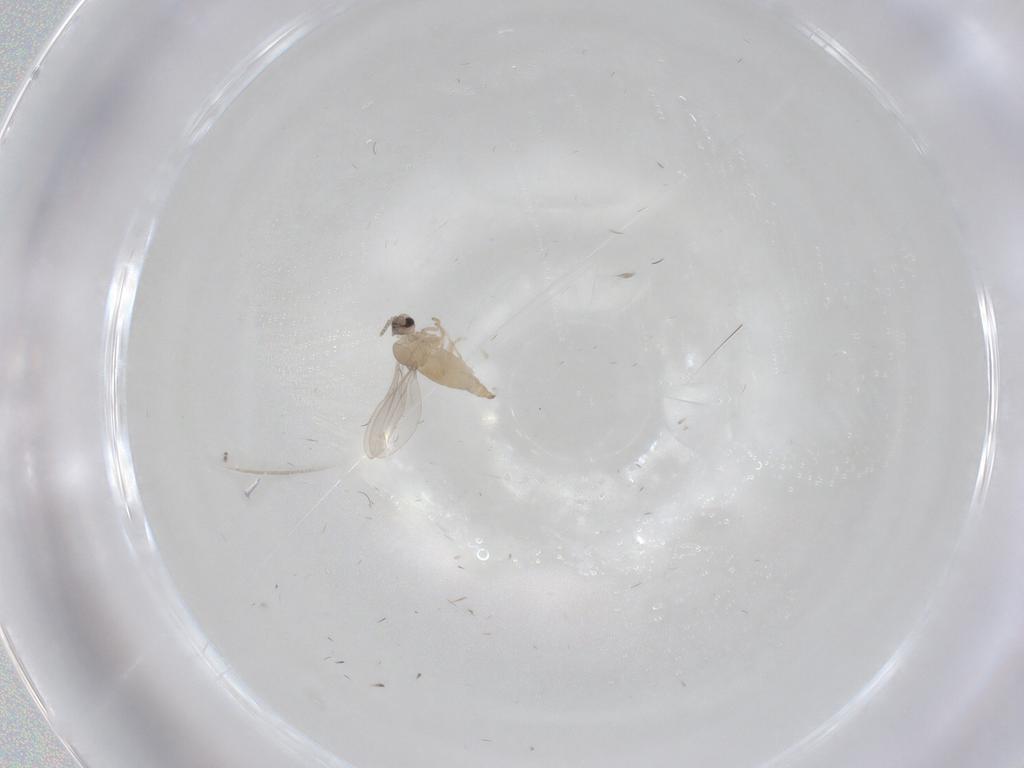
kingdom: Animalia
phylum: Arthropoda
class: Insecta
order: Diptera
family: Cecidomyiidae
